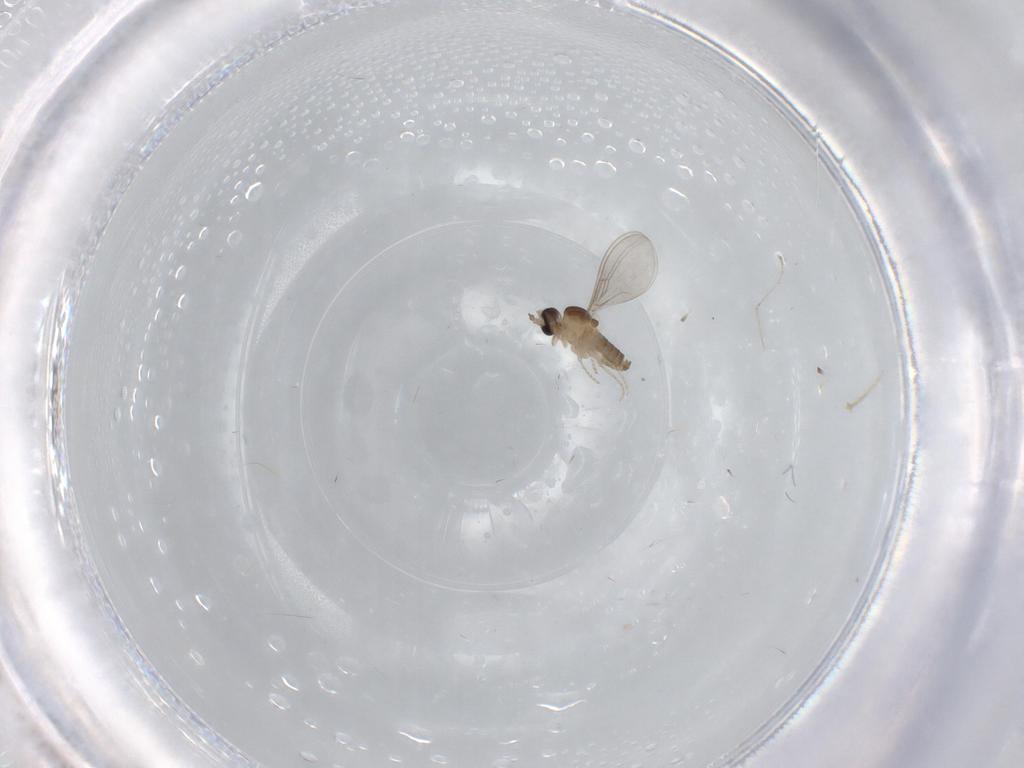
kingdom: Animalia
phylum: Arthropoda
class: Insecta
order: Diptera
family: Cecidomyiidae
